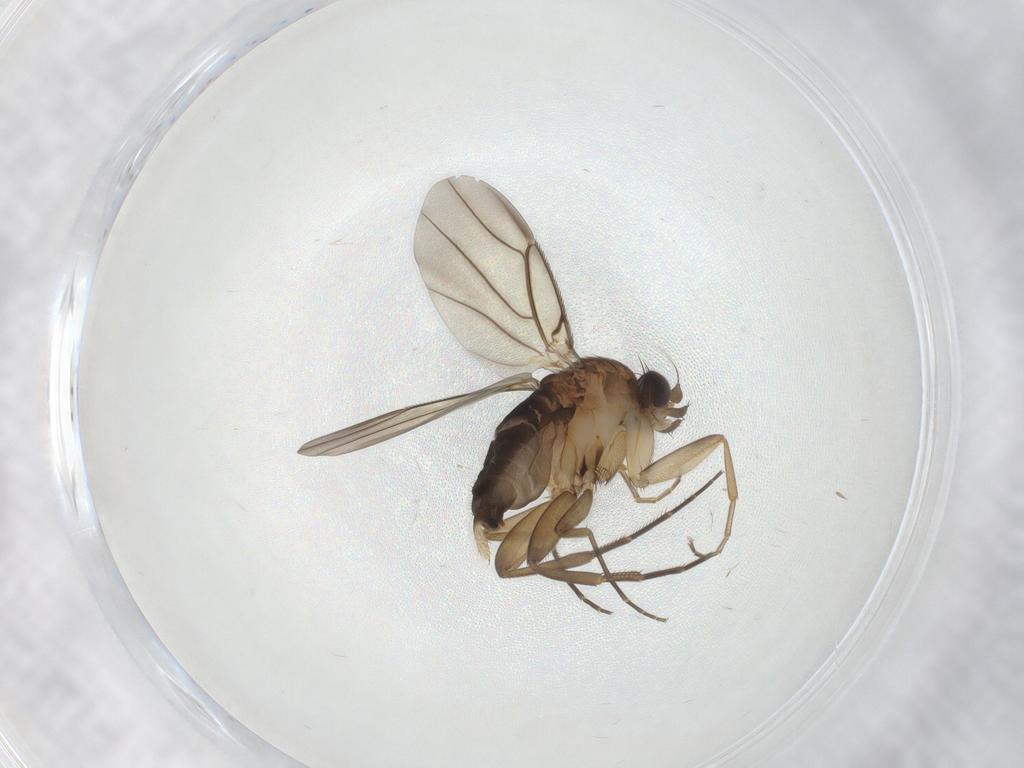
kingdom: Animalia
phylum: Arthropoda
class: Insecta
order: Diptera
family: Phoridae
